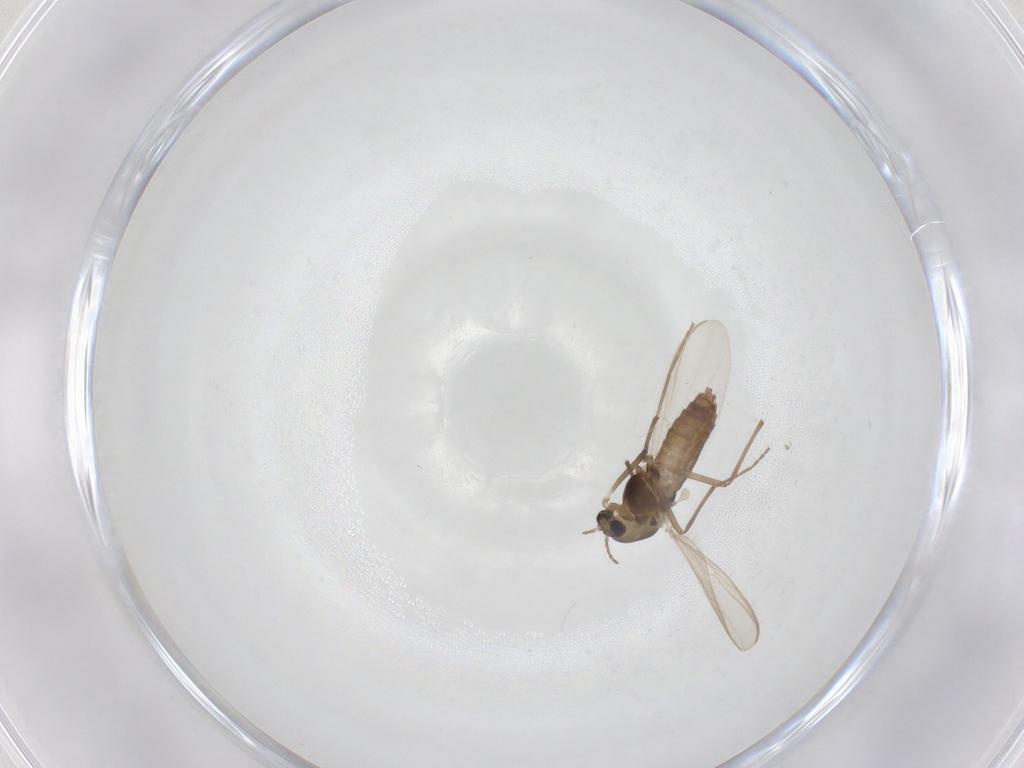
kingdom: Animalia
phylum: Arthropoda
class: Insecta
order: Diptera
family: Chironomidae
